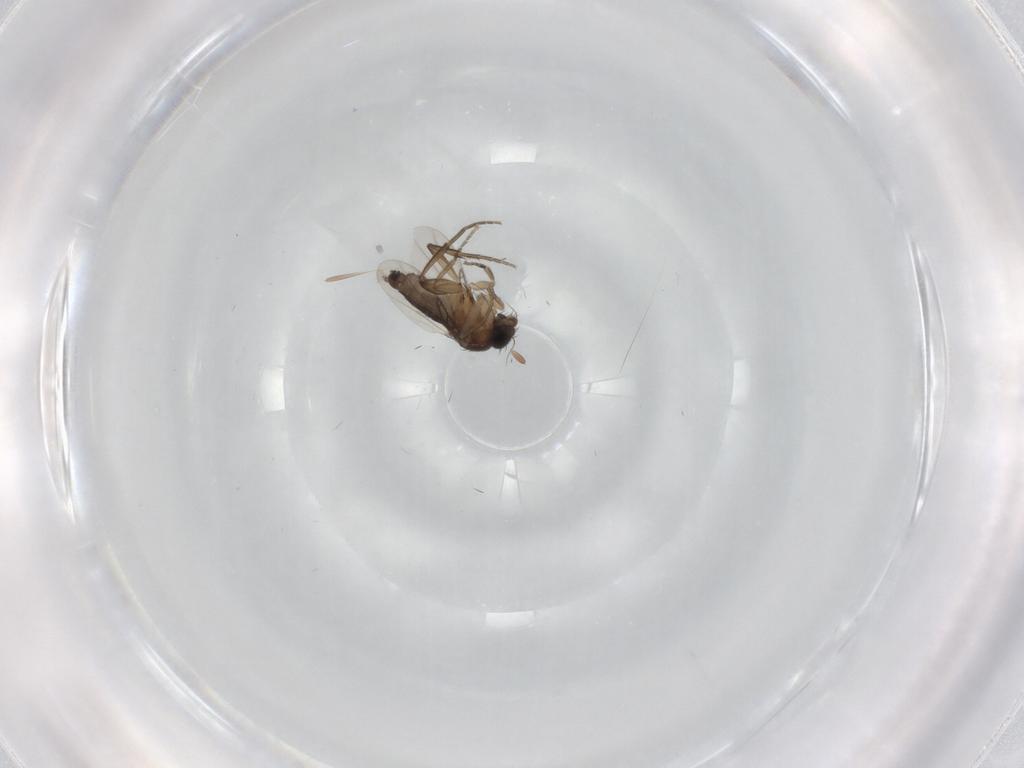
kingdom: Animalia
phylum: Arthropoda
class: Insecta
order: Diptera
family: Phoridae
